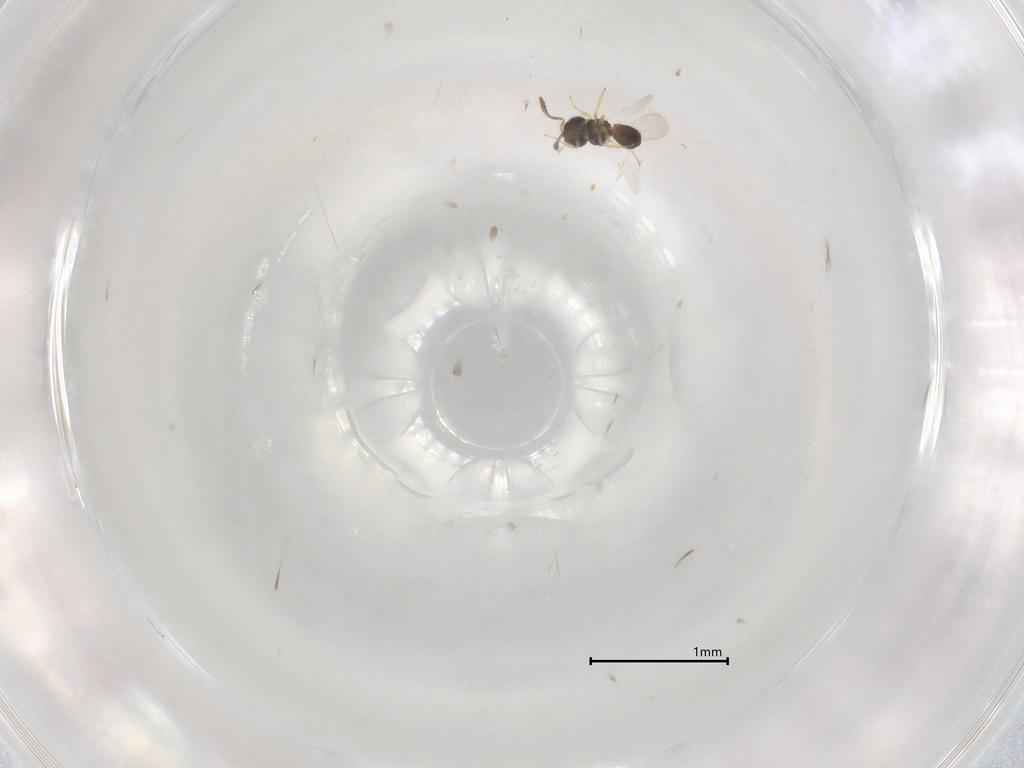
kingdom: Animalia
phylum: Arthropoda
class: Insecta
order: Hymenoptera
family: Scelionidae
